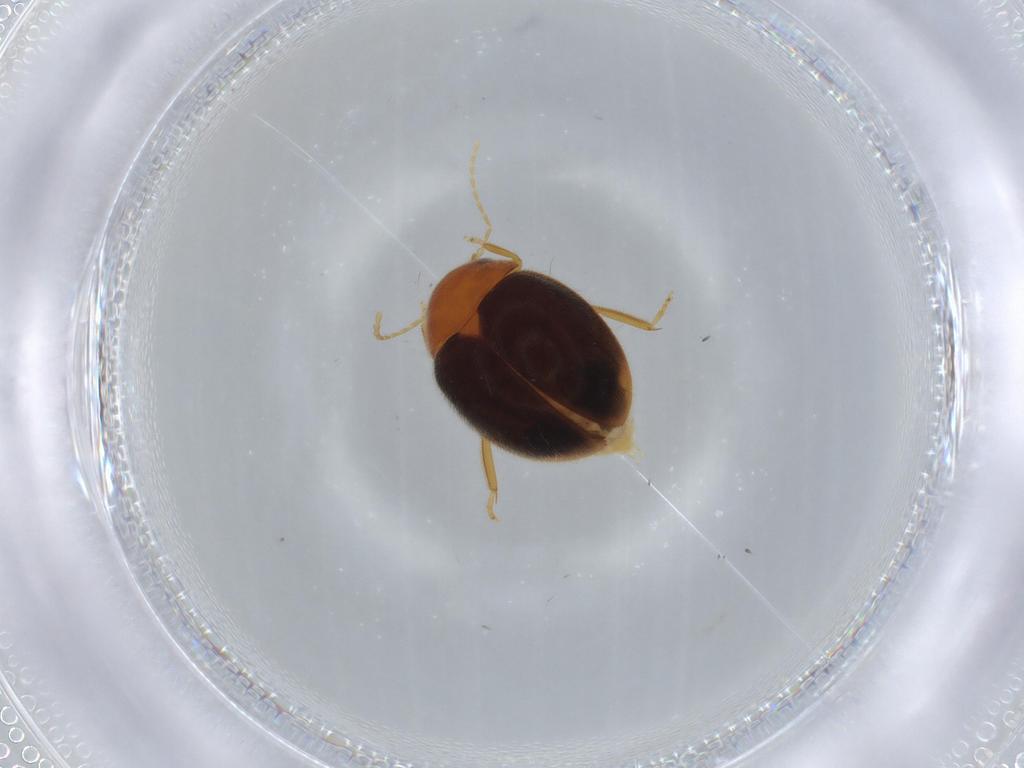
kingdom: Animalia
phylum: Arthropoda
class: Insecta
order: Coleoptera
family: Scirtidae
